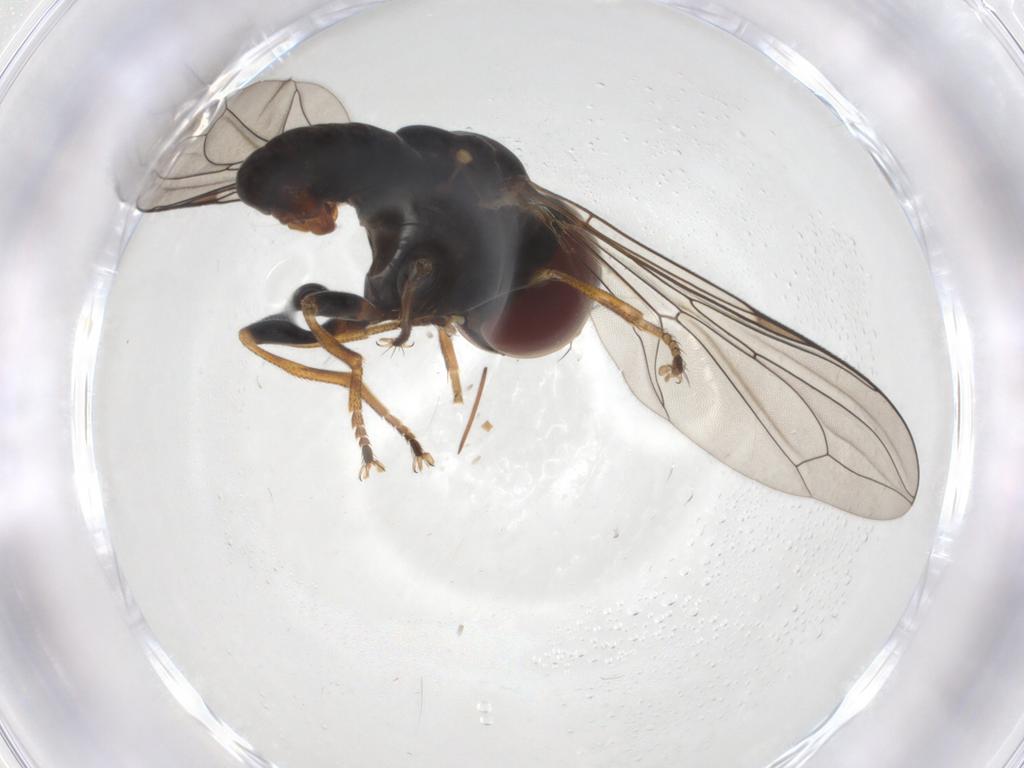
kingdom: Animalia
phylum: Arthropoda
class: Insecta
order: Diptera
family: Pipunculidae
